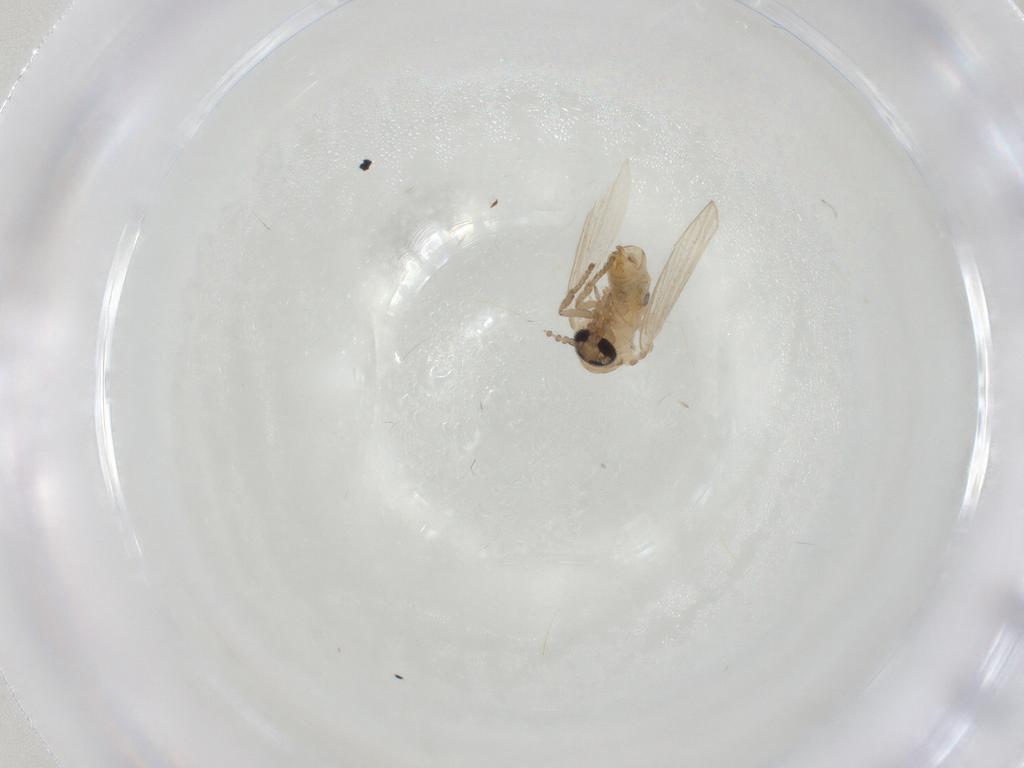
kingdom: Animalia
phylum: Arthropoda
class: Insecta
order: Diptera
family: Psychodidae
